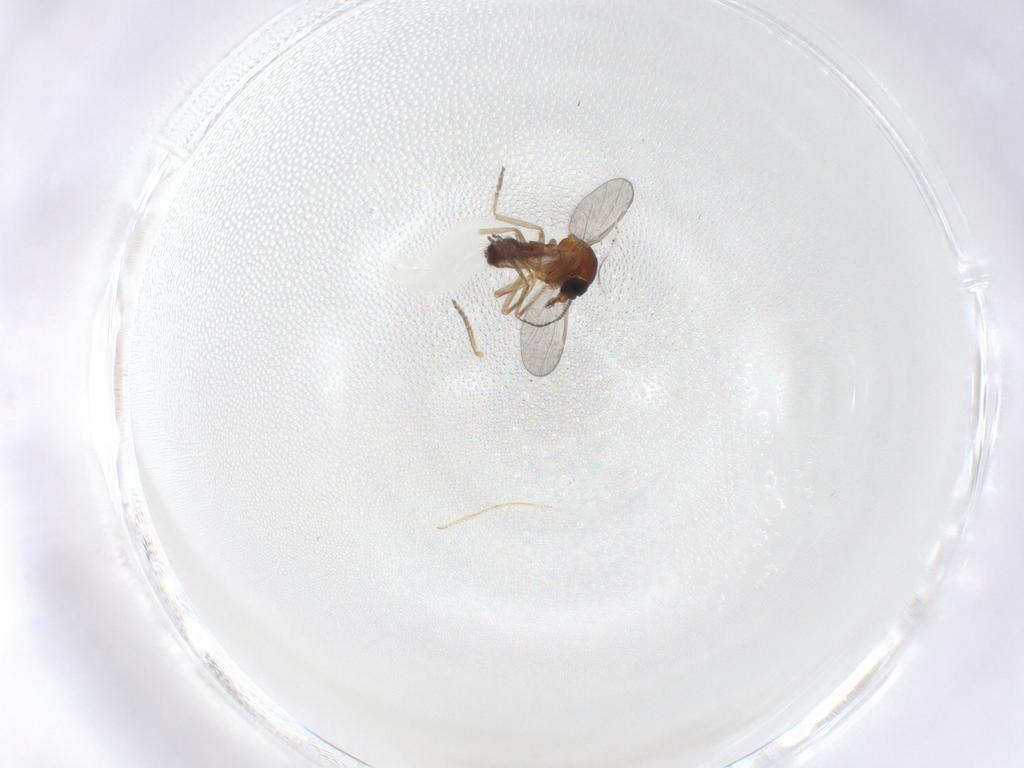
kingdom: Animalia
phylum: Arthropoda
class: Insecta
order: Diptera
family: Ceratopogonidae
